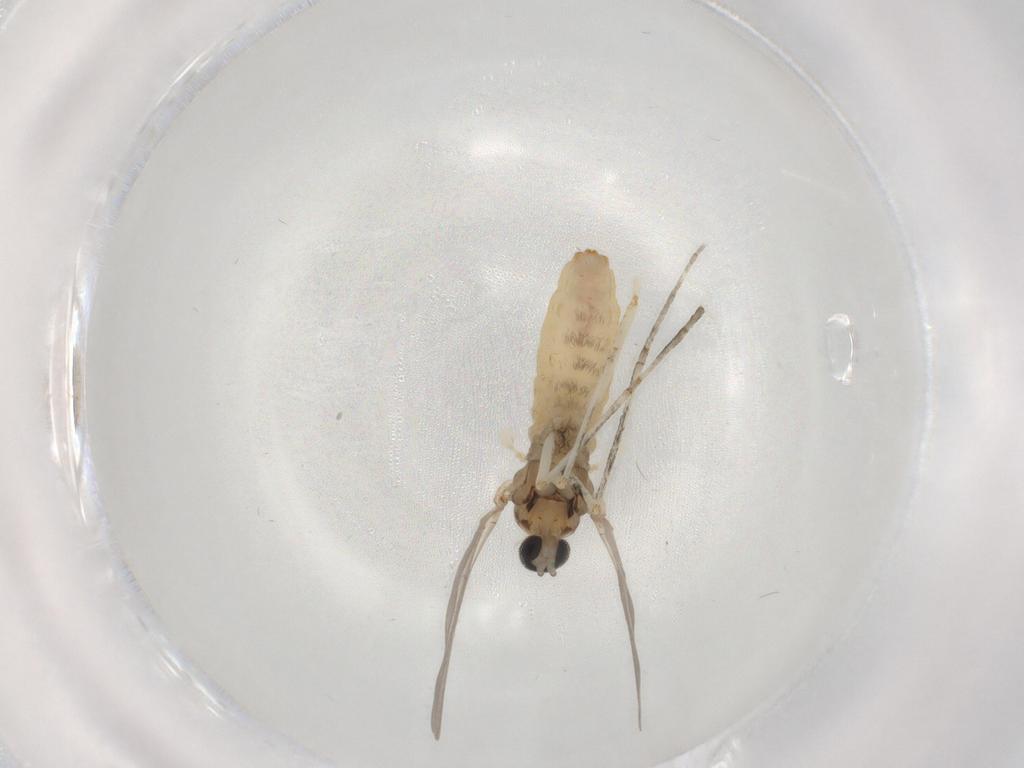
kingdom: Animalia
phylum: Arthropoda
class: Insecta
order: Diptera
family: Cecidomyiidae
